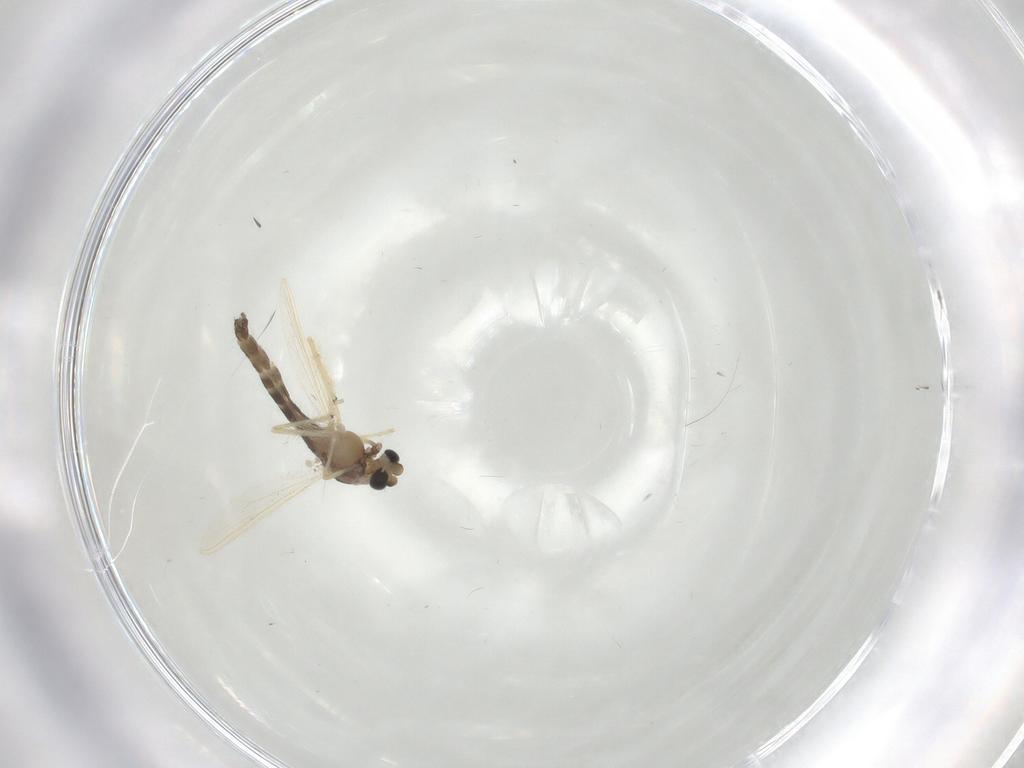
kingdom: Animalia
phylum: Arthropoda
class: Insecta
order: Diptera
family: Chironomidae
